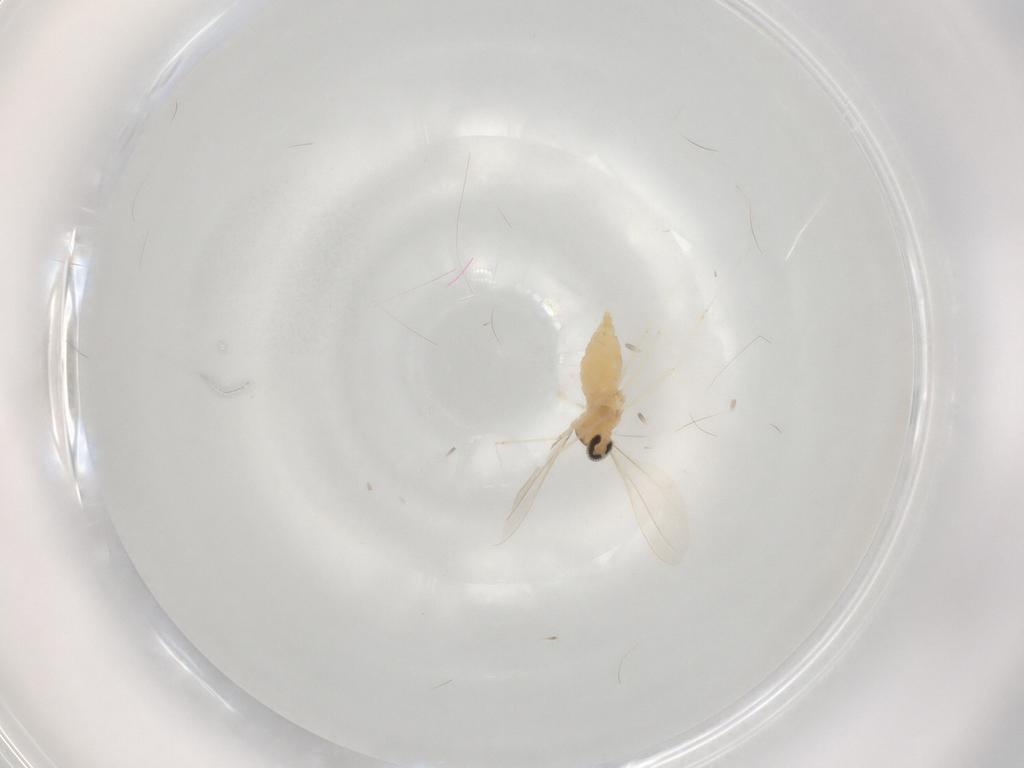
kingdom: Animalia
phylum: Arthropoda
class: Insecta
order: Diptera
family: Cecidomyiidae
